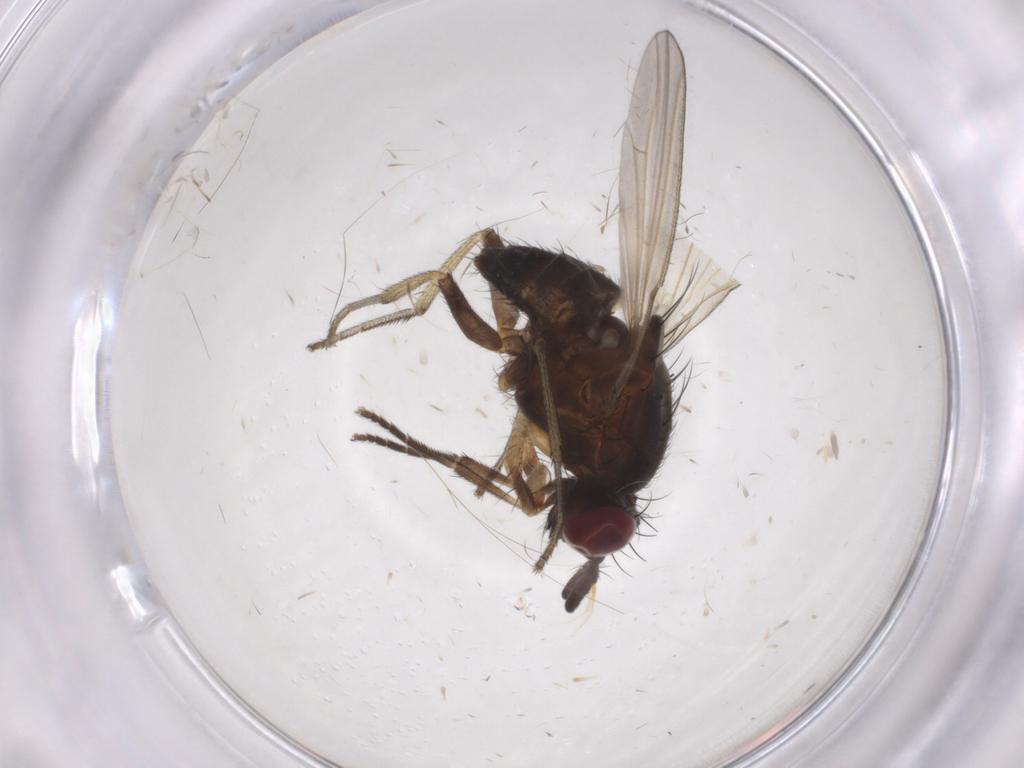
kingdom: Animalia
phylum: Arthropoda
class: Insecta
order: Diptera
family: Lauxaniidae
